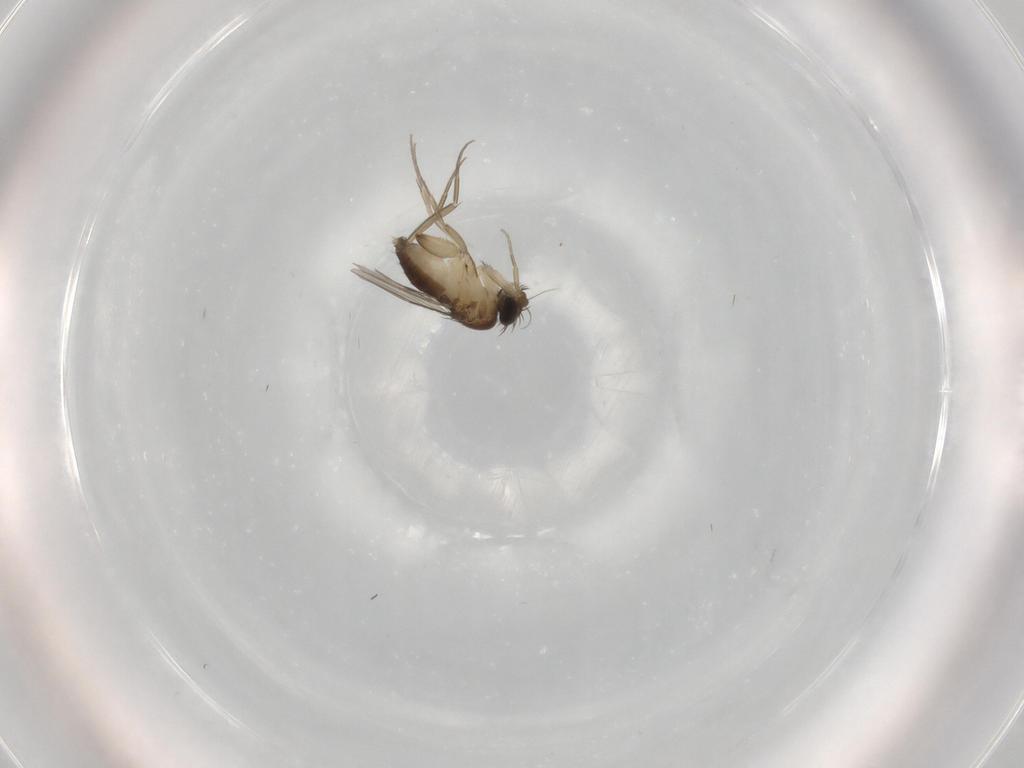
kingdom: Animalia
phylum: Arthropoda
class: Insecta
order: Diptera
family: Phoridae
